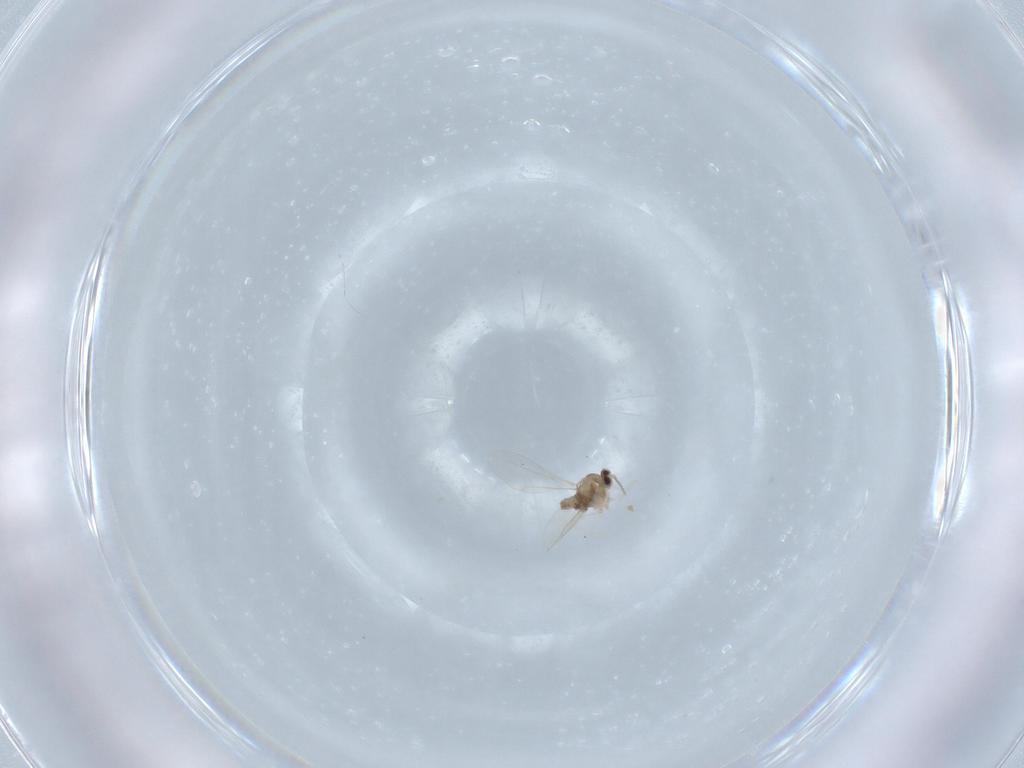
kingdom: Animalia
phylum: Arthropoda
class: Insecta
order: Diptera
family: Cecidomyiidae
